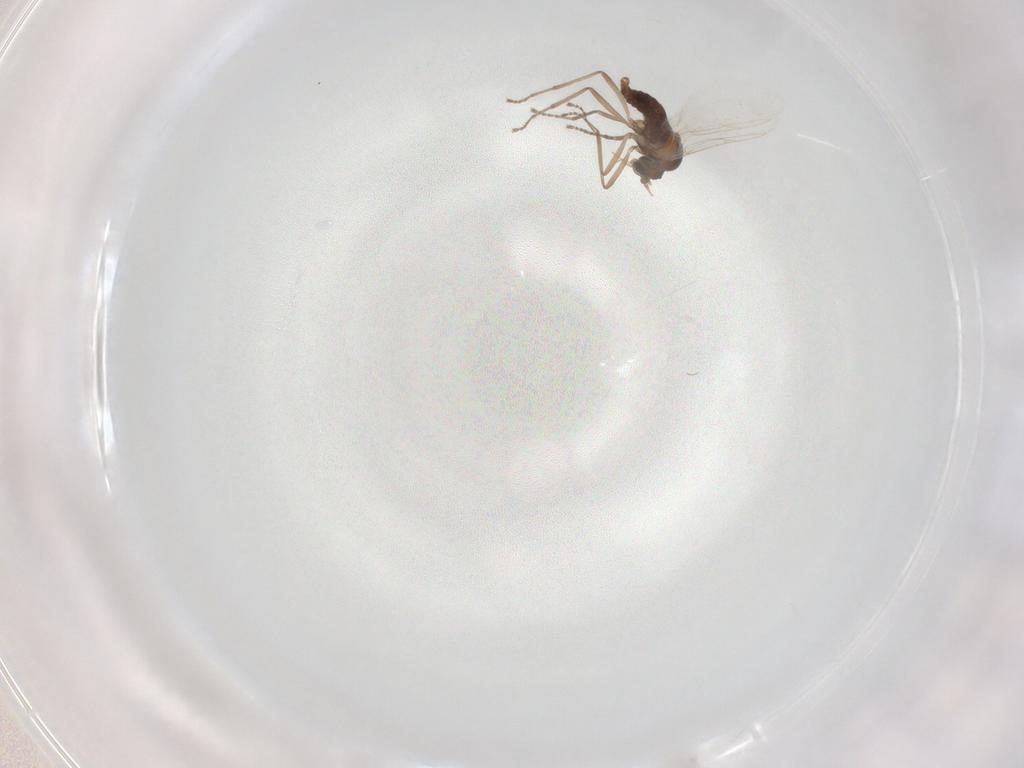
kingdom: Animalia
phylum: Arthropoda
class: Insecta
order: Diptera
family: Cecidomyiidae
